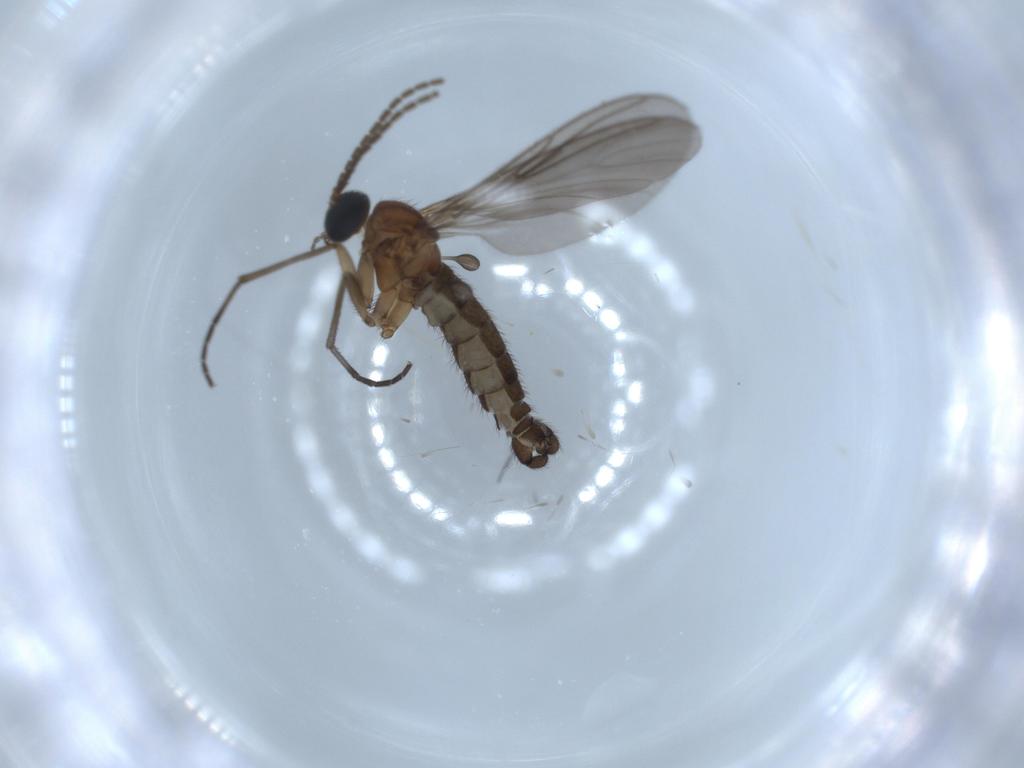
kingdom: Animalia
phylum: Arthropoda
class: Insecta
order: Diptera
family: Sciaridae
